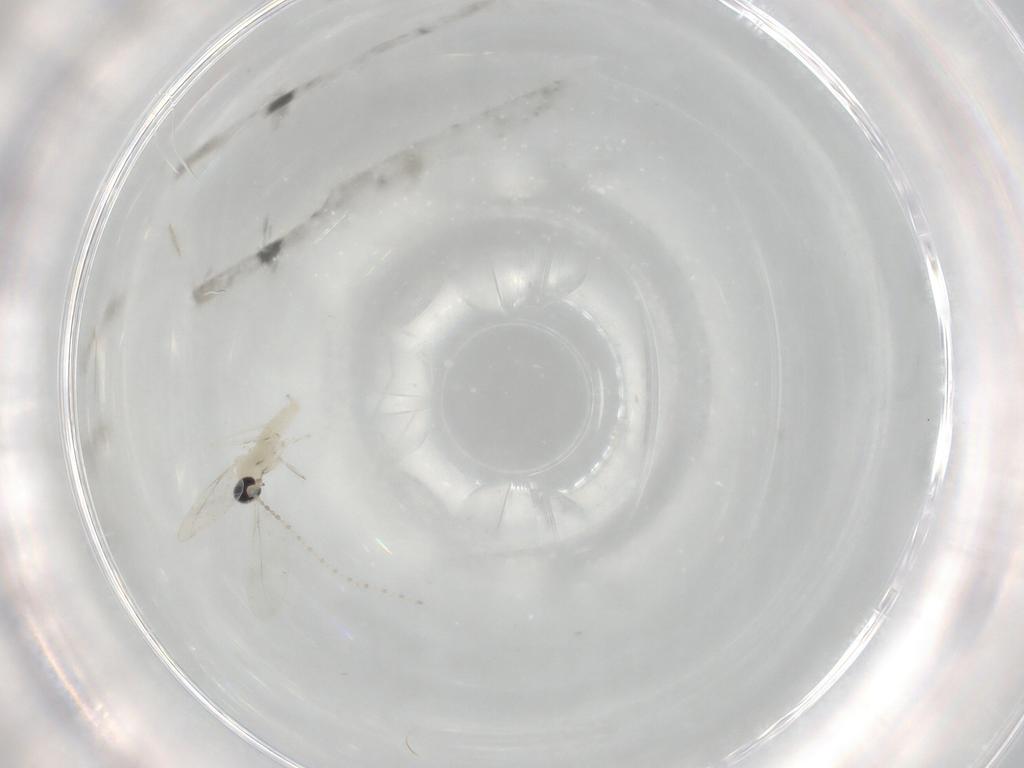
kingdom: Animalia
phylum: Arthropoda
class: Insecta
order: Diptera
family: Cecidomyiidae
